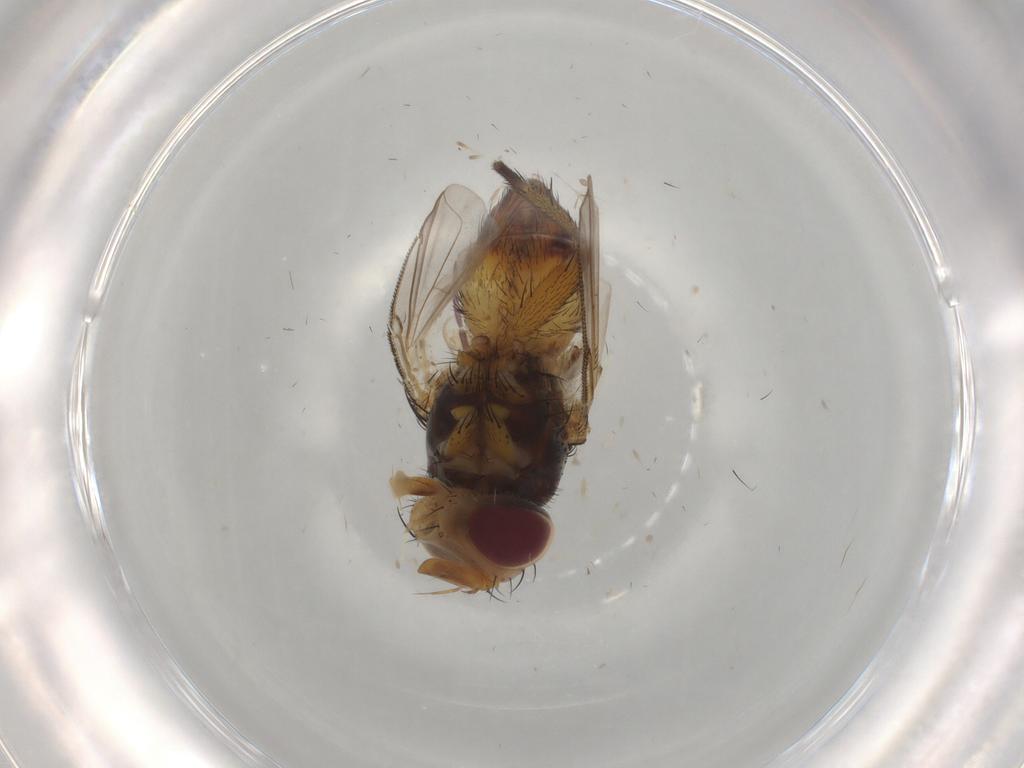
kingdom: Animalia
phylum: Arthropoda
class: Insecta
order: Diptera
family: Tachinidae
